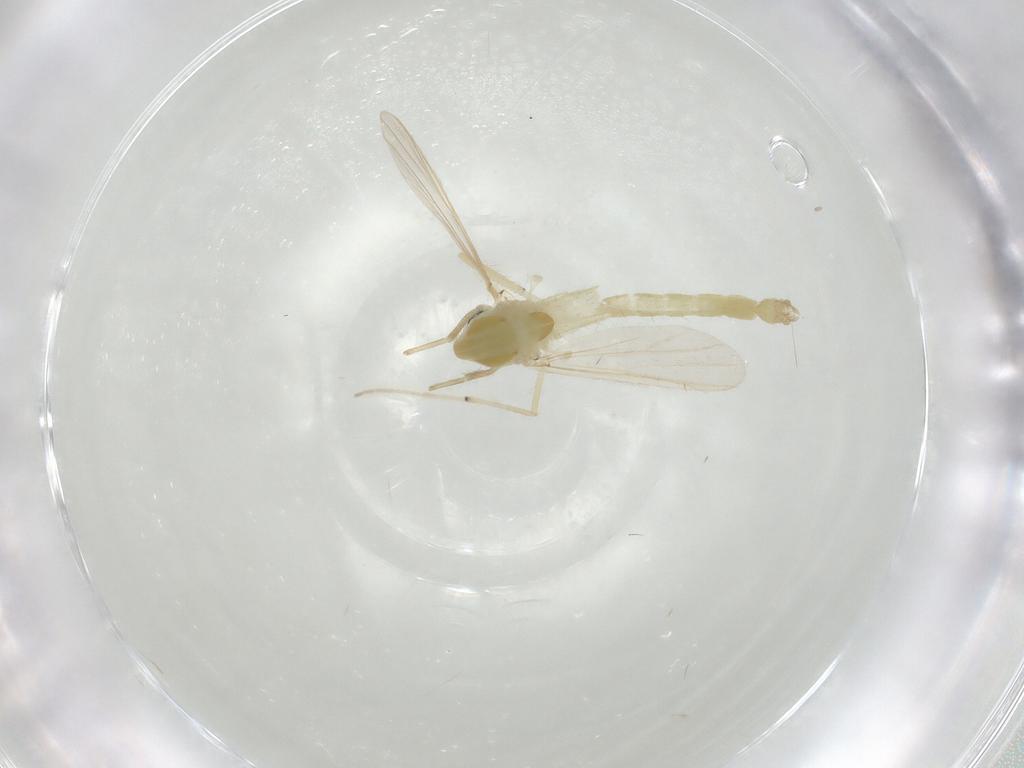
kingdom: Animalia
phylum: Arthropoda
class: Insecta
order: Diptera
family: Chironomidae
